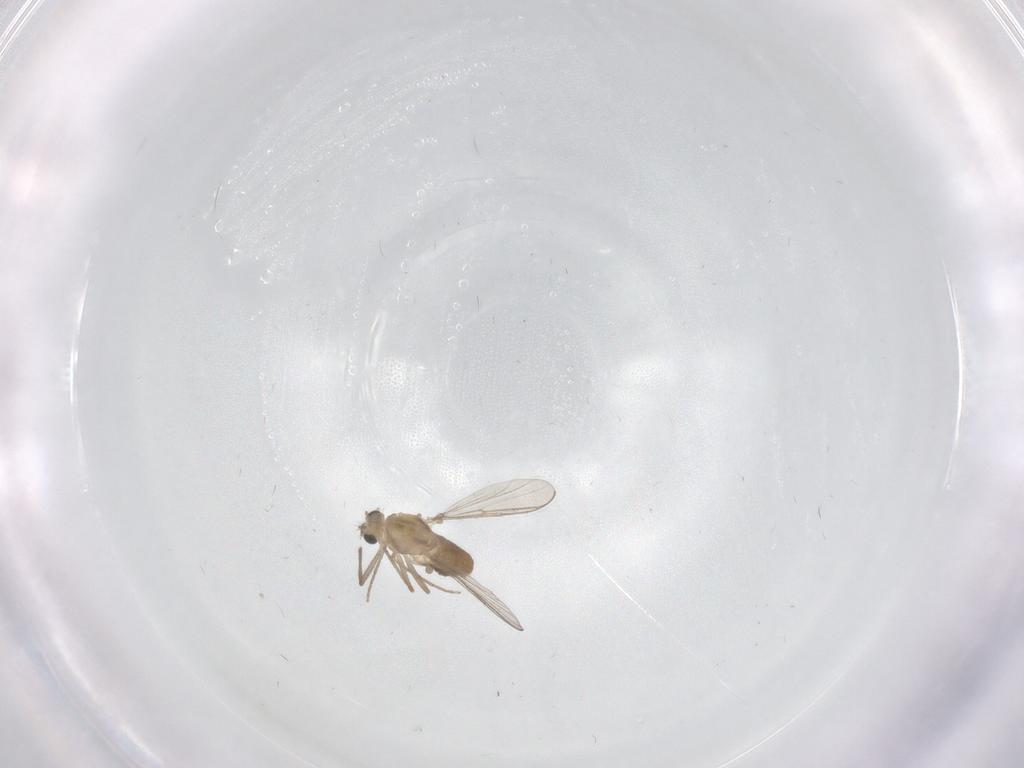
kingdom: Animalia
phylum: Arthropoda
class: Insecta
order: Diptera
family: Chironomidae
